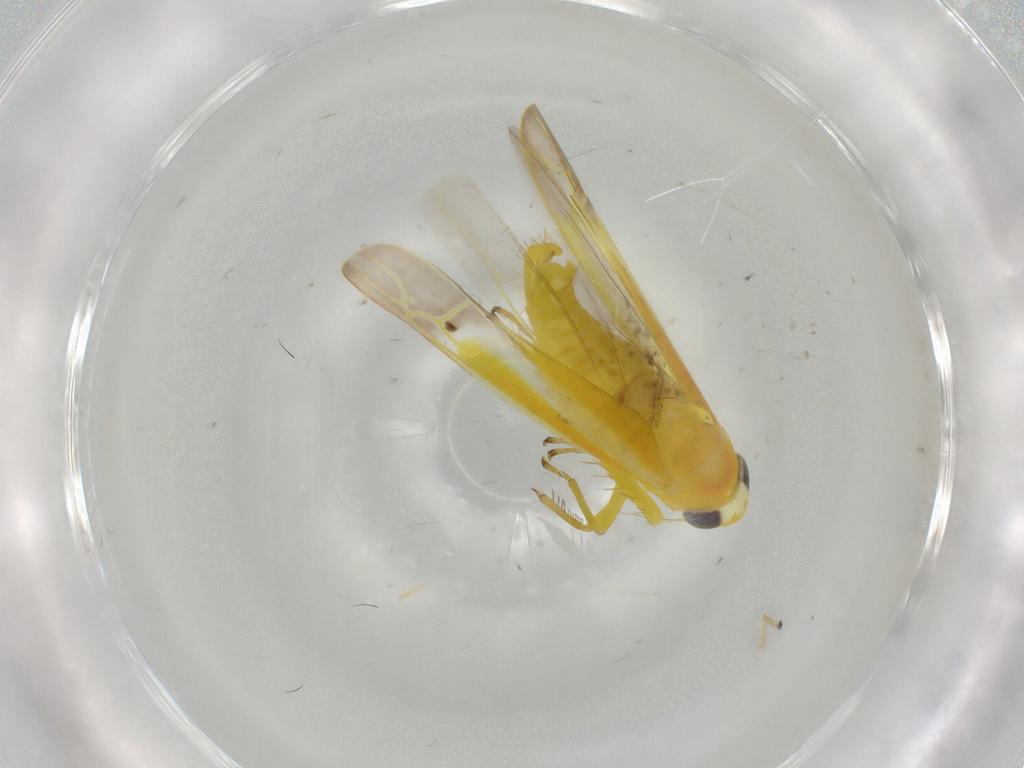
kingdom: Animalia
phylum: Arthropoda
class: Insecta
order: Hemiptera
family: Cicadellidae
